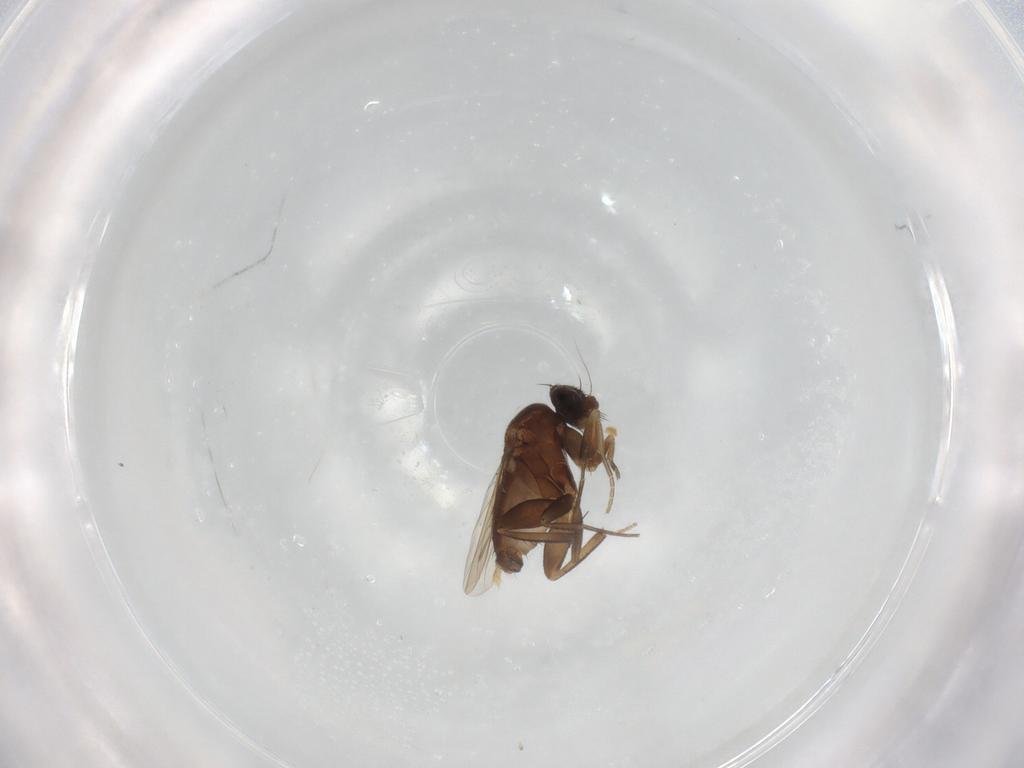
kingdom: Animalia
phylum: Arthropoda
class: Insecta
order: Diptera
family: Phoridae
